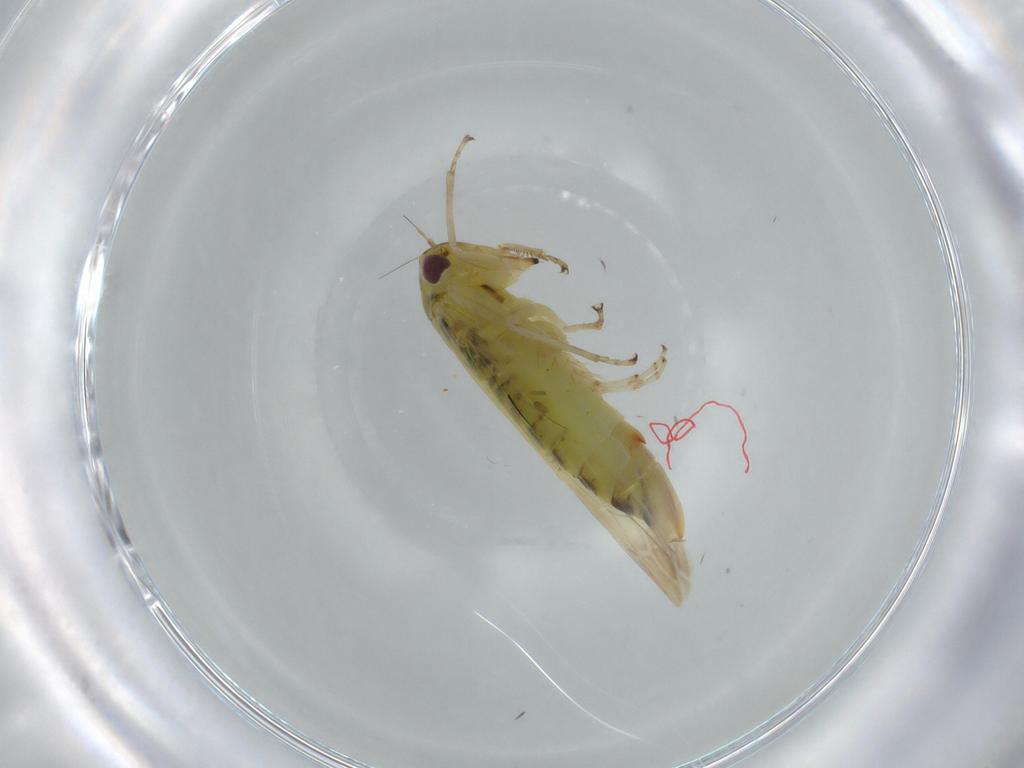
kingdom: Animalia
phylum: Arthropoda
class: Insecta
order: Hemiptera
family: Cicadellidae
